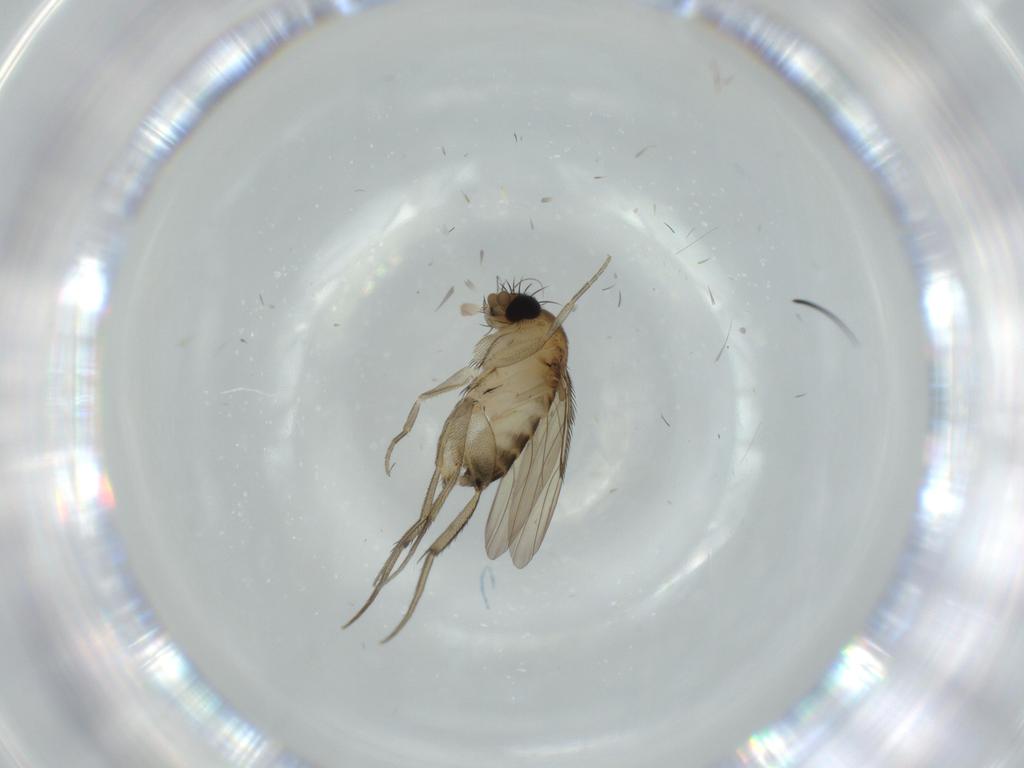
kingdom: Animalia
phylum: Arthropoda
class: Insecta
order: Diptera
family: Phoridae
